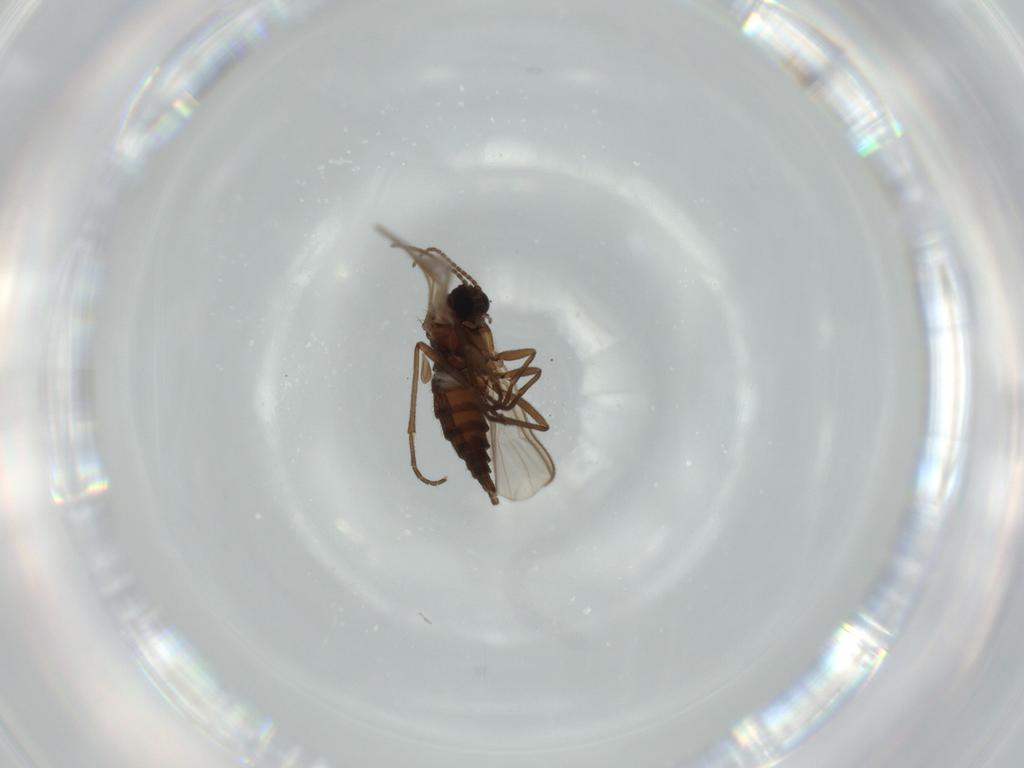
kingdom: Animalia
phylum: Arthropoda
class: Insecta
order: Diptera
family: Sciaridae
